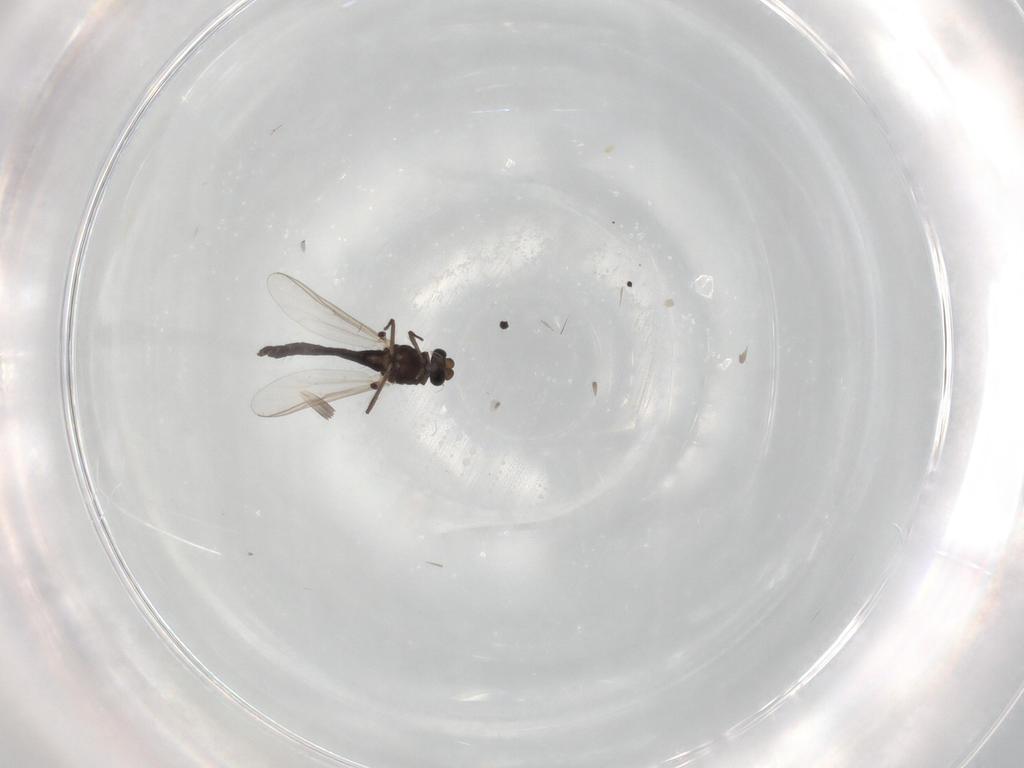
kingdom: Animalia
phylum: Arthropoda
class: Insecta
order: Diptera
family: Chironomidae
